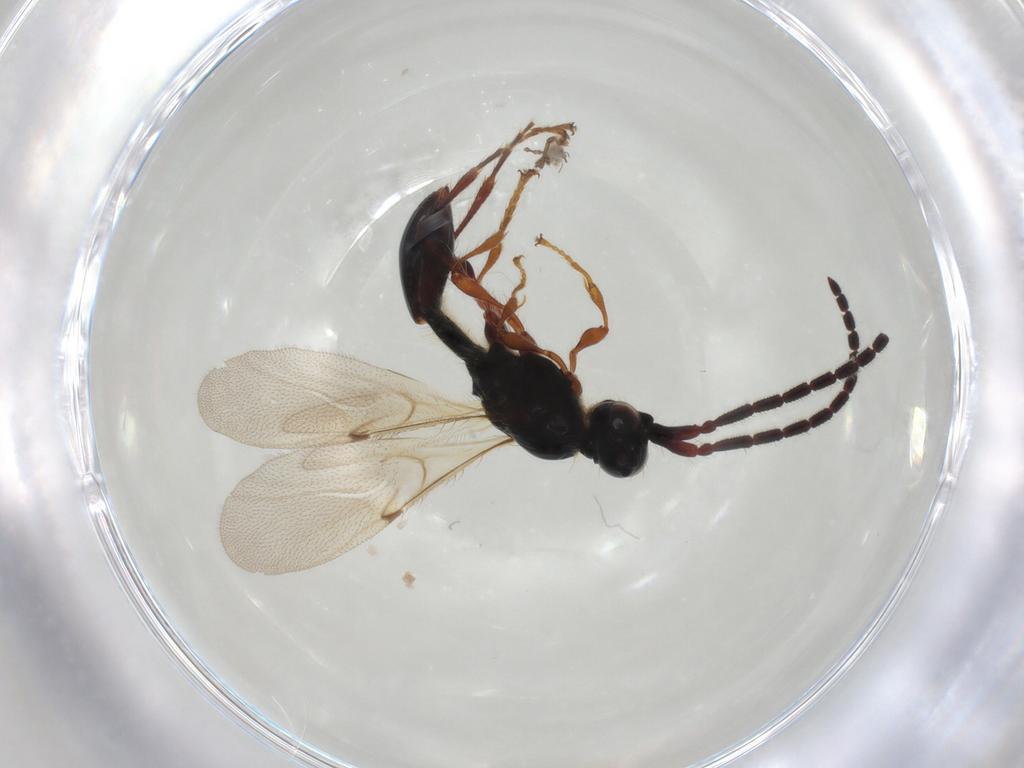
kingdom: Animalia
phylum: Arthropoda
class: Insecta
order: Hymenoptera
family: Diapriidae
